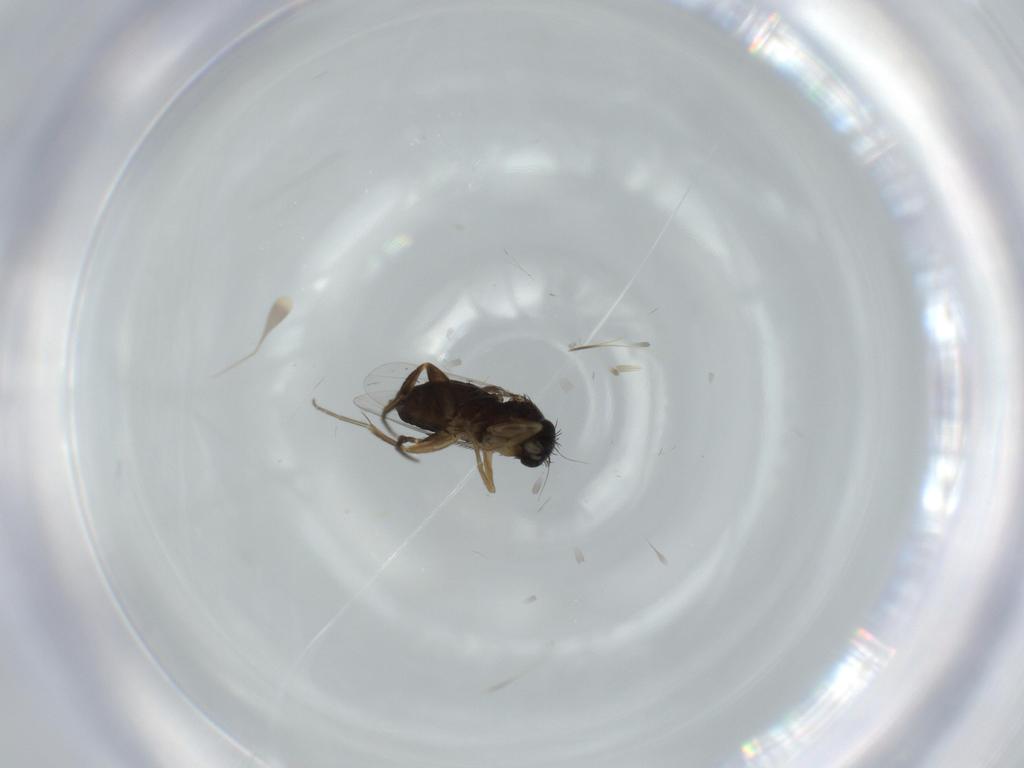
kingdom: Animalia
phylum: Arthropoda
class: Insecta
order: Diptera
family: Phoridae
